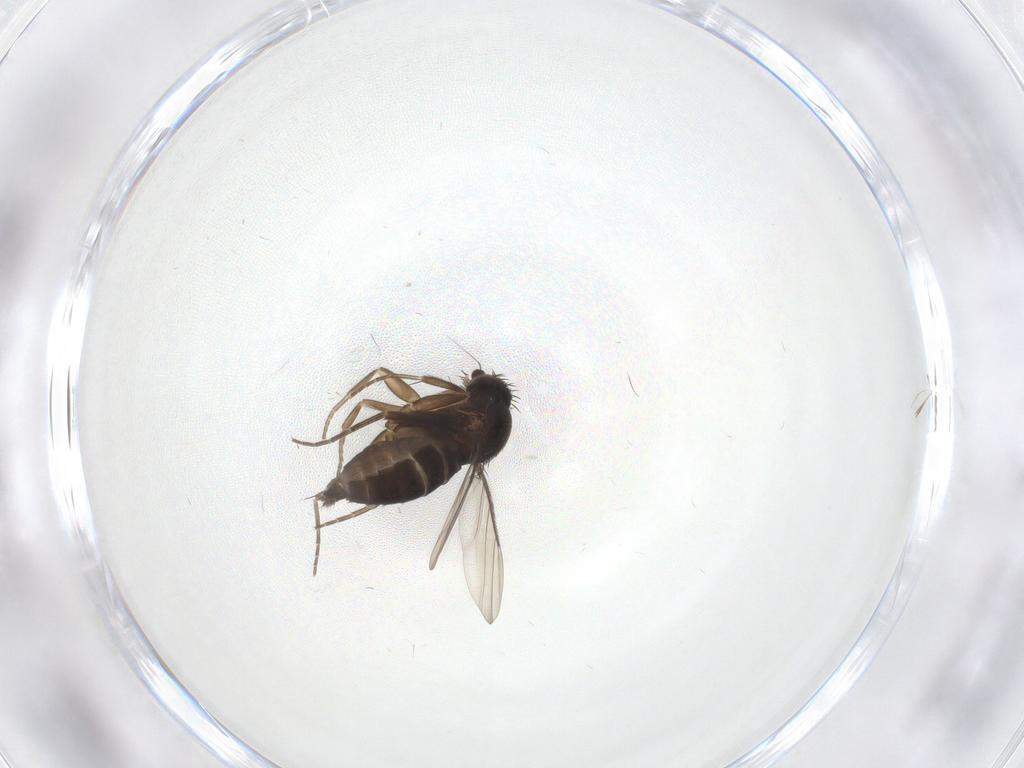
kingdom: Animalia
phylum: Arthropoda
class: Insecta
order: Diptera
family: Phoridae
